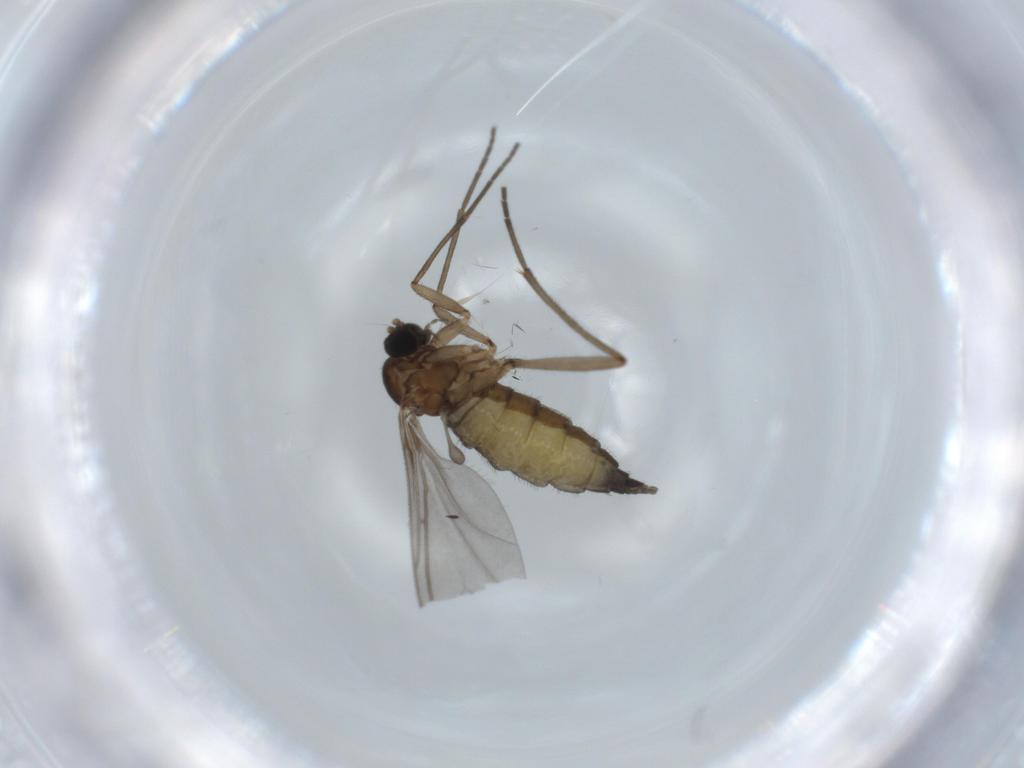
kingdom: Animalia
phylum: Arthropoda
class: Insecta
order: Diptera
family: Sciaridae
